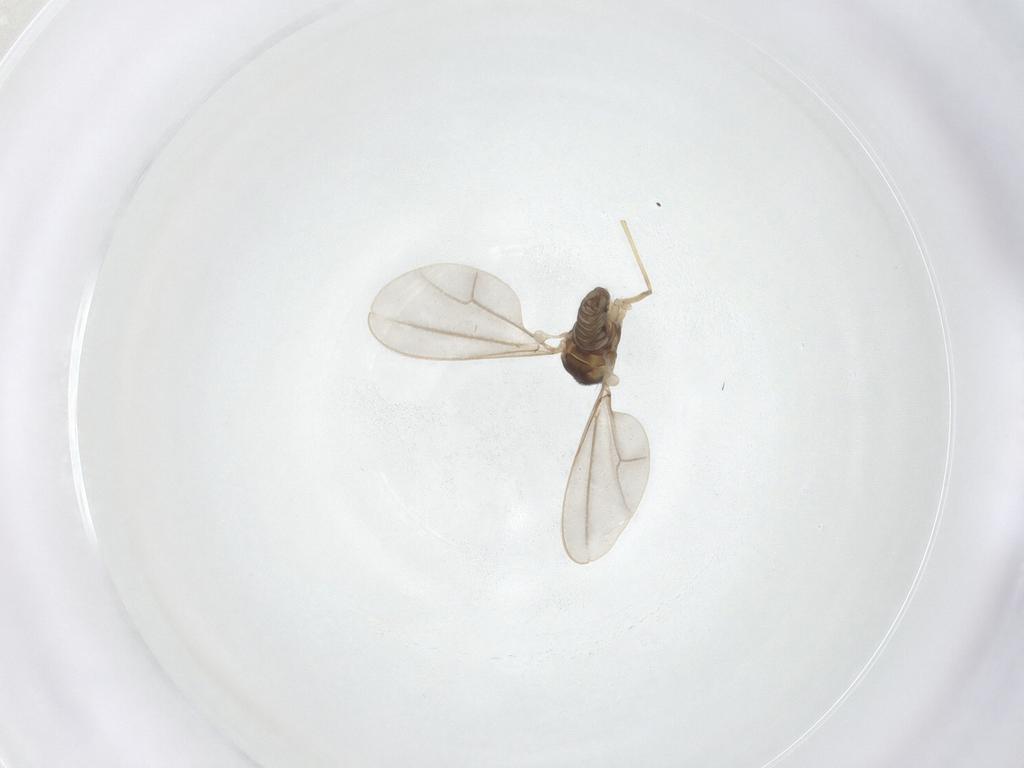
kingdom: Animalia
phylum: Arthropoda
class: Insecta
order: Diptera
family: Cecidomyiidae
